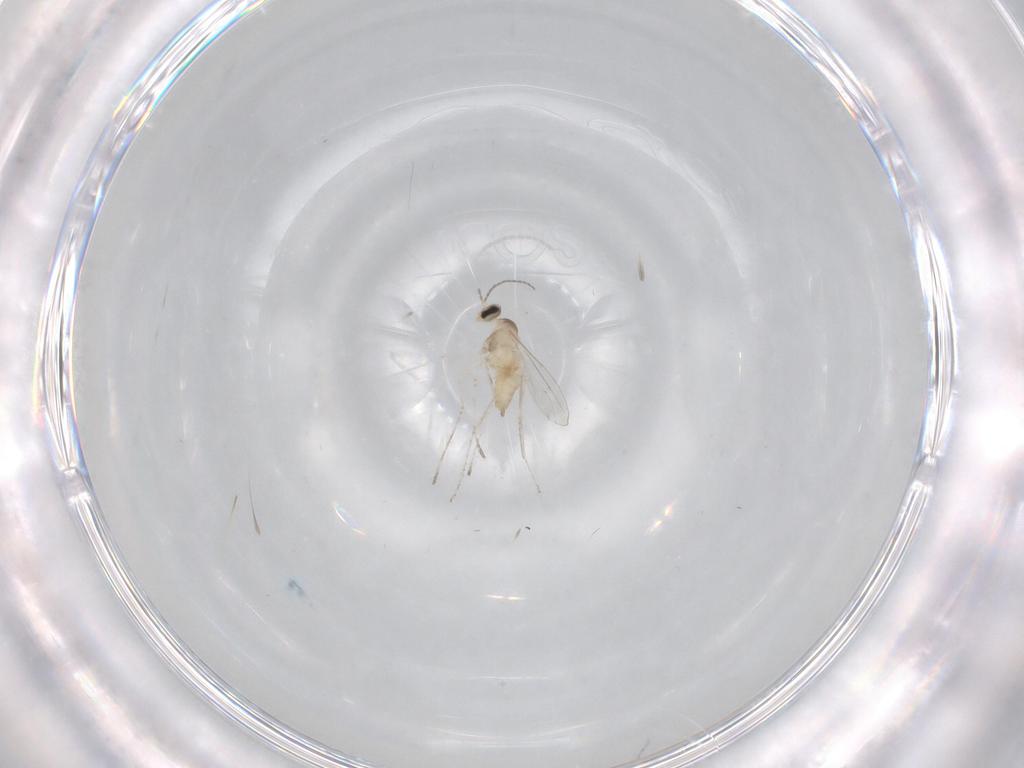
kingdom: Animalia
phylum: Arthropoda
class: Insecta
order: Diptera
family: Cecidomyiidae
